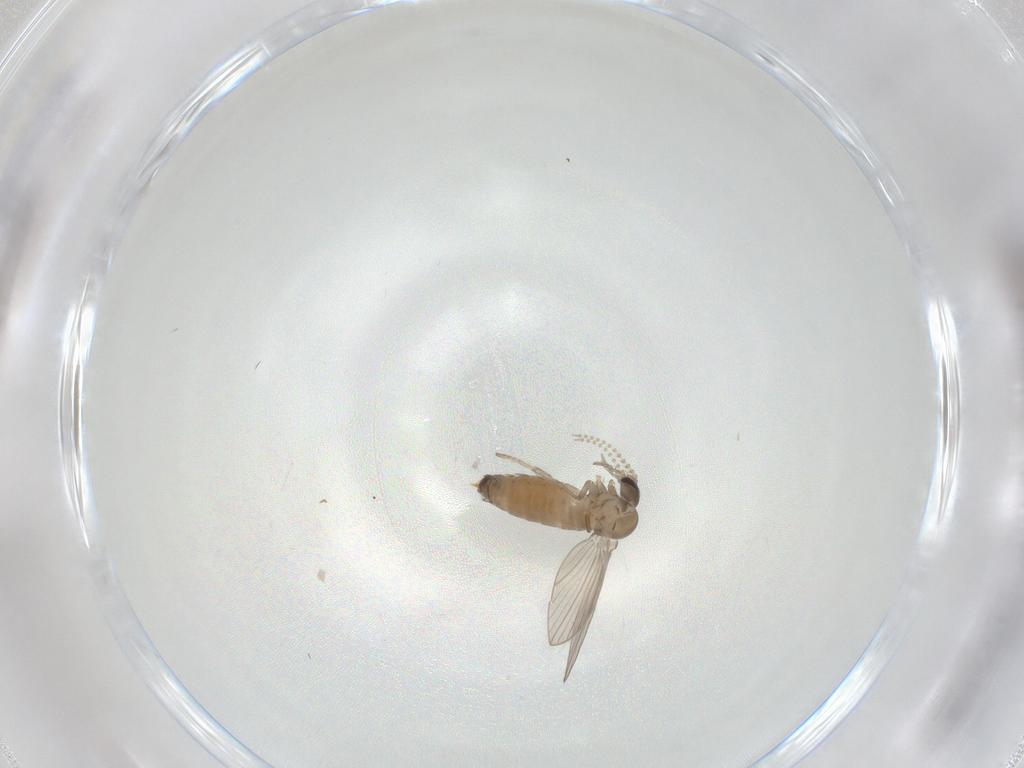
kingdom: Animalia
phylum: Arthropoda
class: Insecta
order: Diptera
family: Psychodidae
